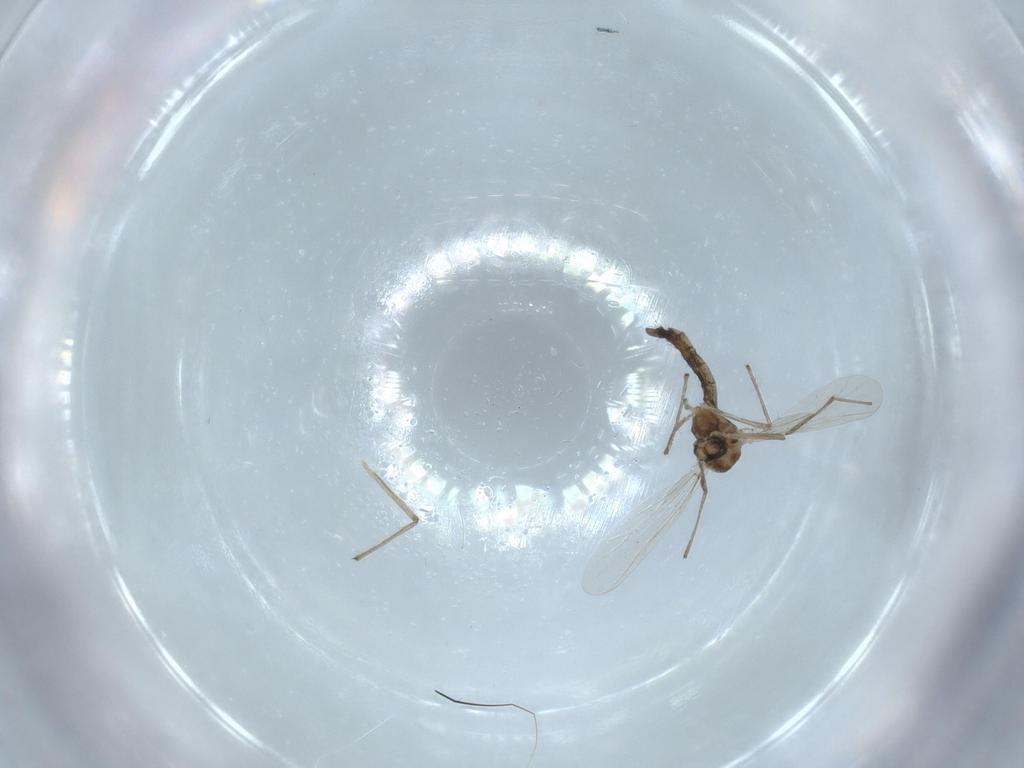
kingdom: Animalia
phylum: Arthropoda
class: Insecta
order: Diptera
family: Chironomidae
